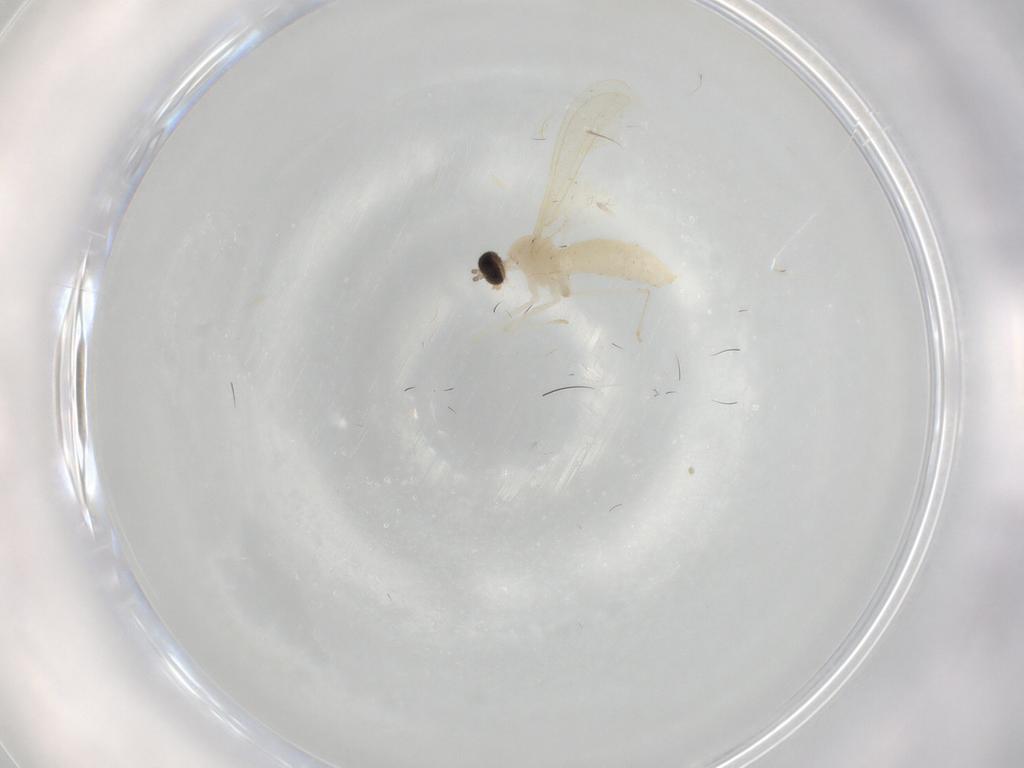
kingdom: Animalia
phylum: Arthropoda
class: Insecta
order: Diptera
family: Cecidomyiidae
